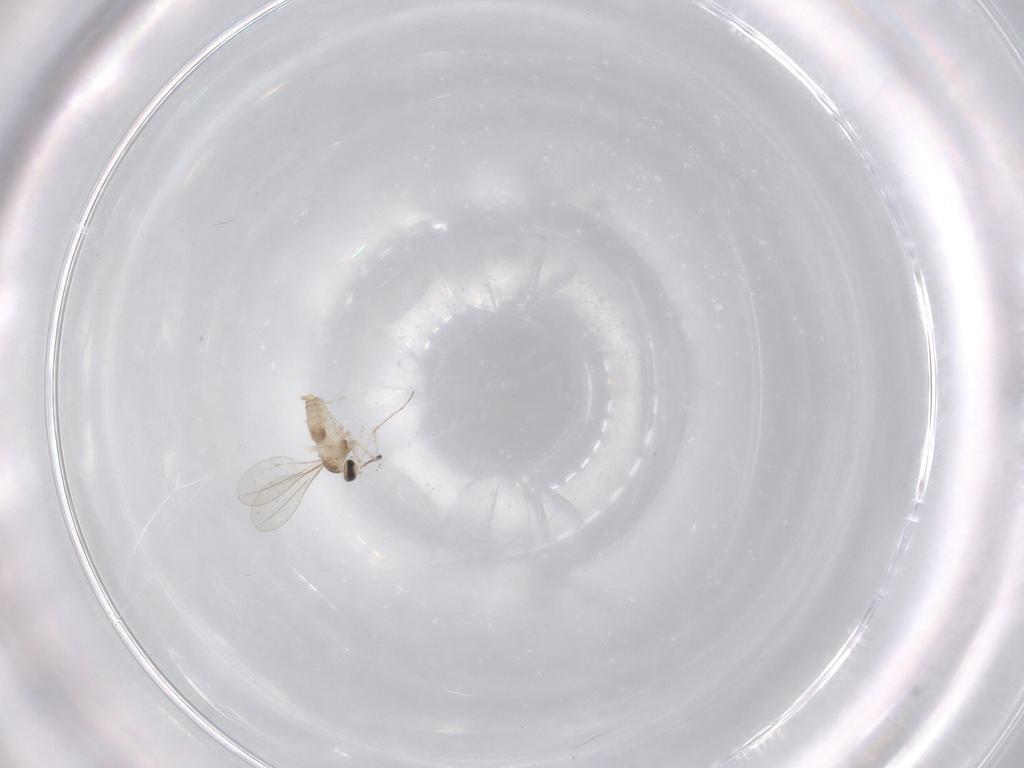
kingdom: Animalia
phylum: Arthropoda
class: Insecta
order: Diptera
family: Cecidomyiidae
